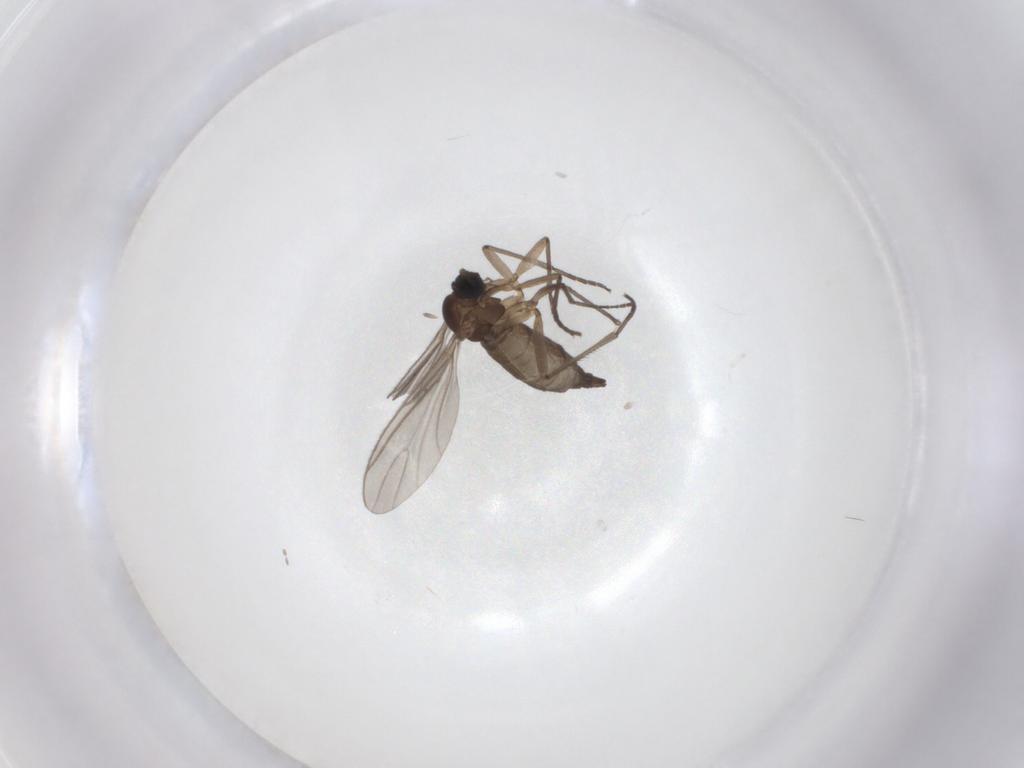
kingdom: Animalia
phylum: Arthropoda
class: Insecta
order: Diptera
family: Sciaridae
